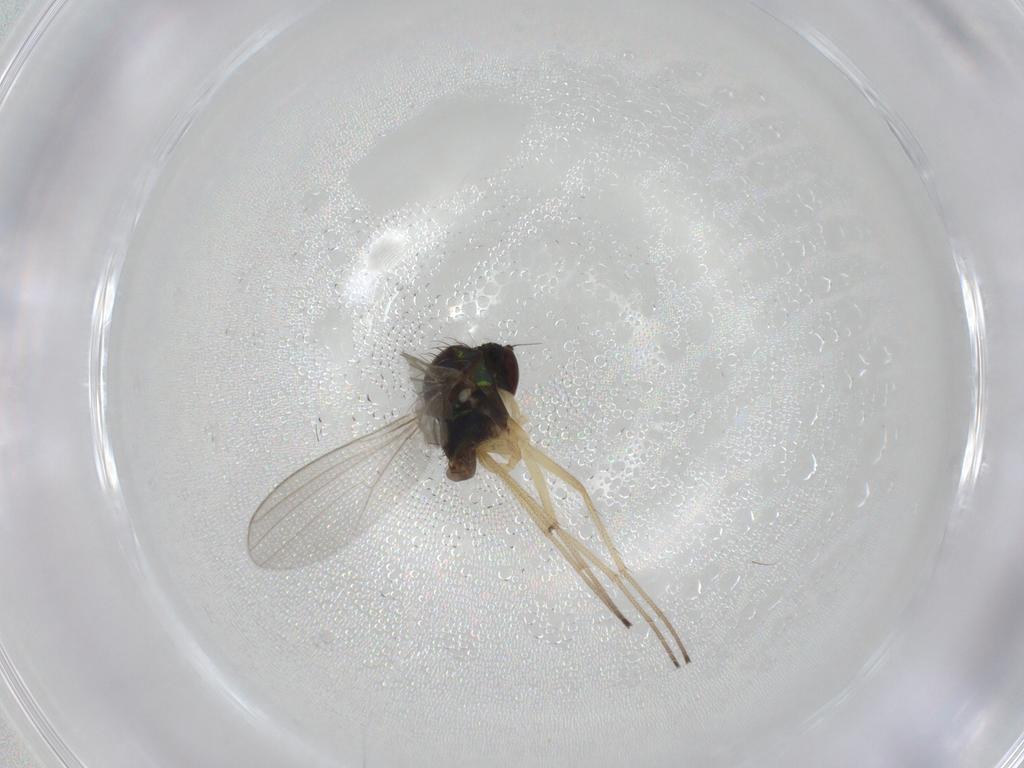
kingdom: Animalia
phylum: Arthropoda
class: Insecta
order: Diptera
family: Dolichopodidae
